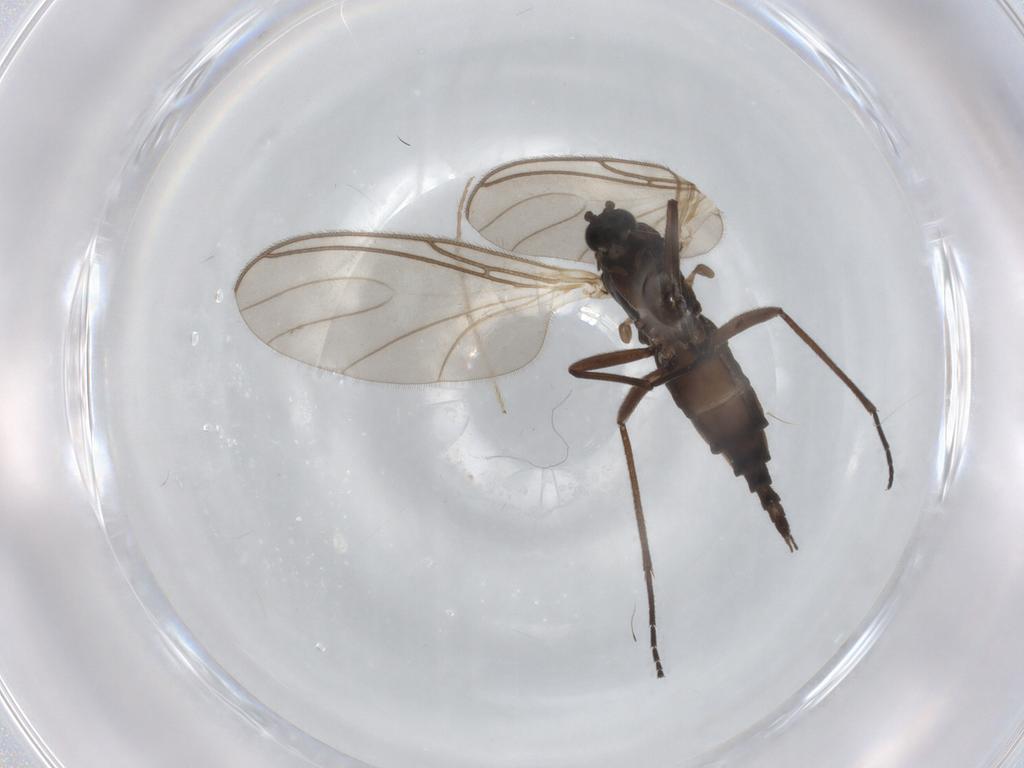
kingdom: Animalia
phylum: Arthropoda
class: Insecta
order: Diptera
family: Sciaridae
